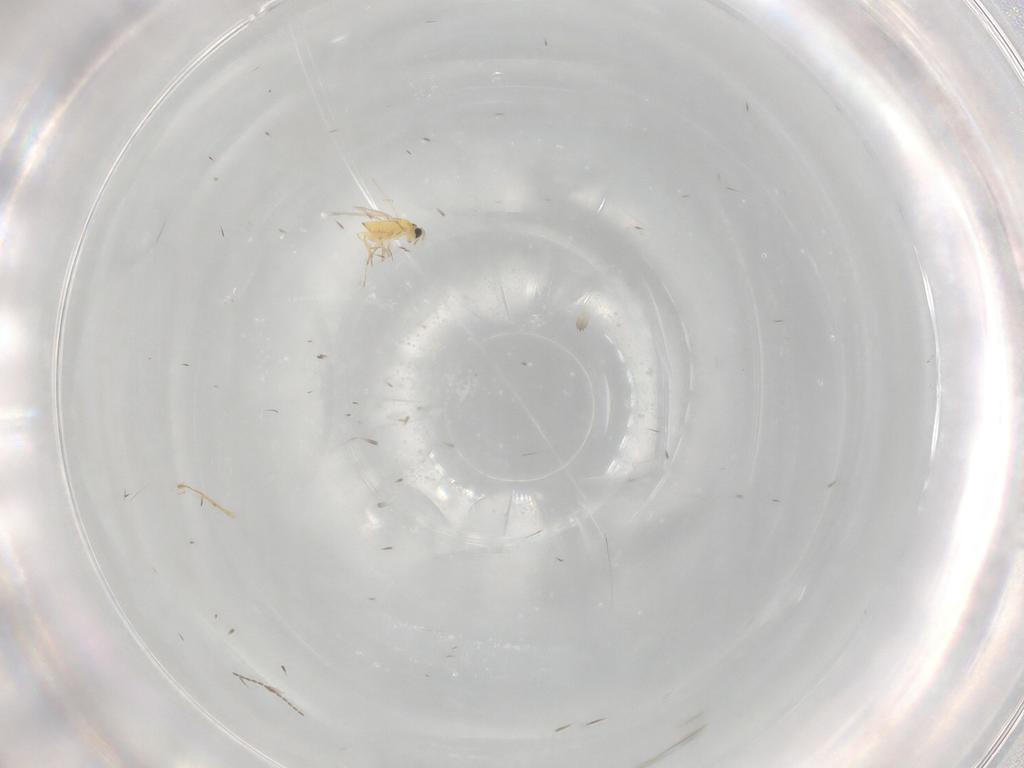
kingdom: Animalia
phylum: Arthropoda
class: Insecta
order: Hymenoptera
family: Trichogrammatidae
